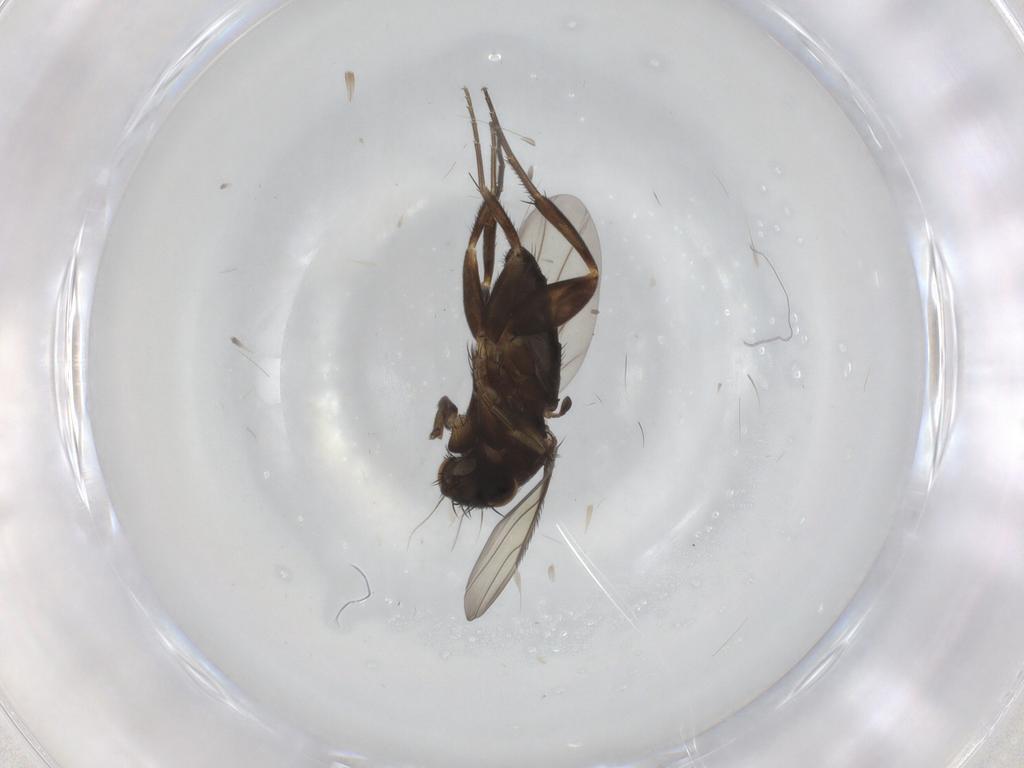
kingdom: Animalia
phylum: Arthropoda
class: Insecta
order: Diptera
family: Phoridae
